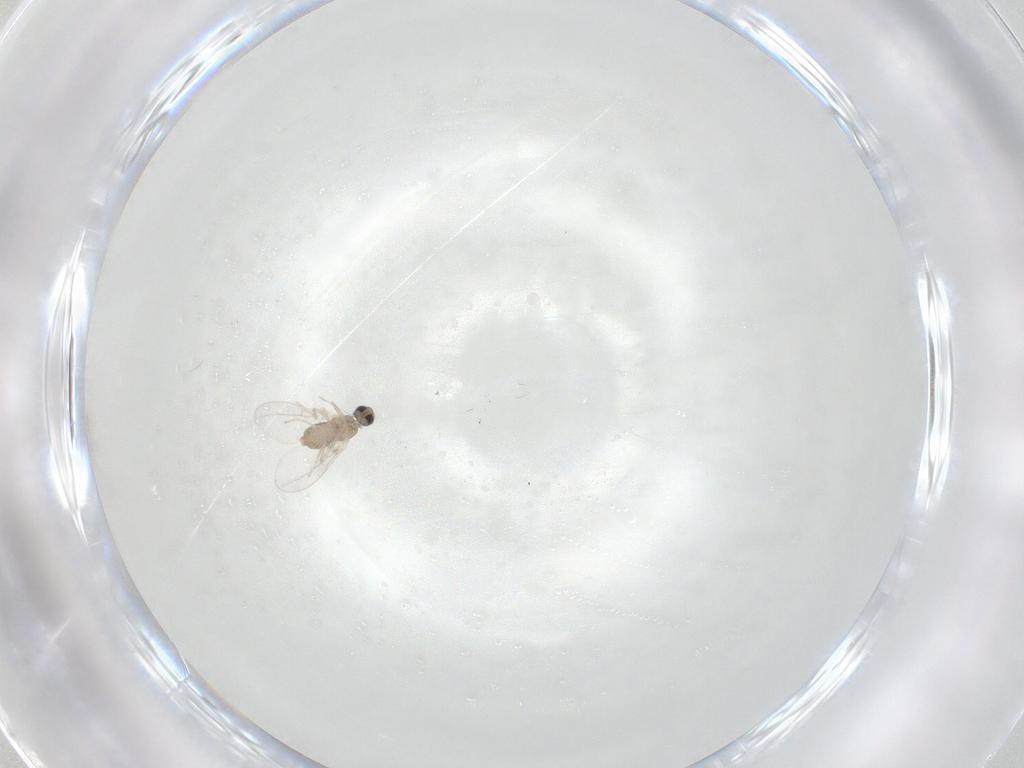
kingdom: Animalia
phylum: Arthropoda
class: Insecta
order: Diptera
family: Cecidomyiidae
